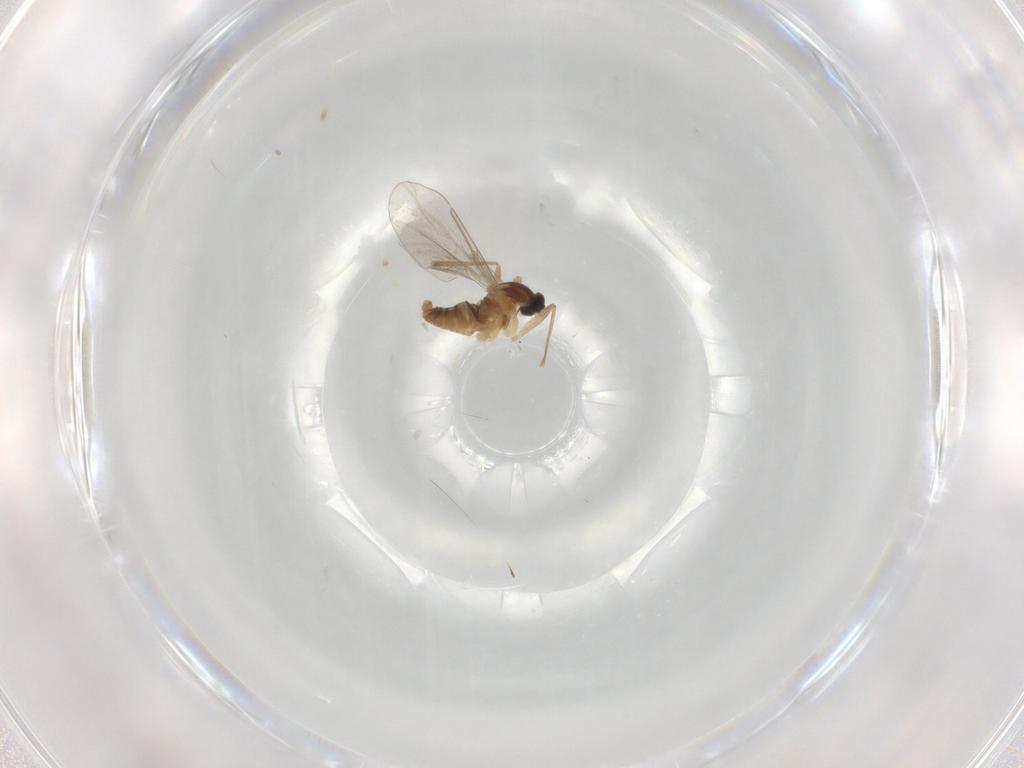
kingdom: Animalia
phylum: Arthropoda
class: Insecta
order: Diptera
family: Cecidomyiidae
